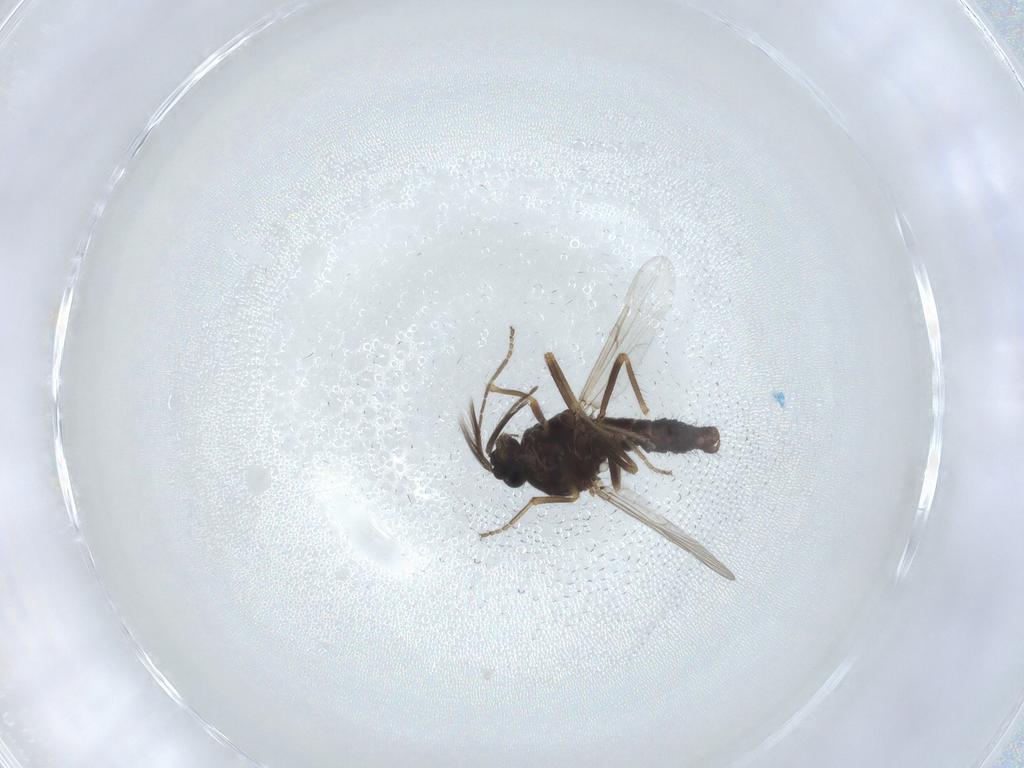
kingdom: Animalia
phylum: Arthropoda
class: Insecta
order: Diptera
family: Ceratopogonidae
